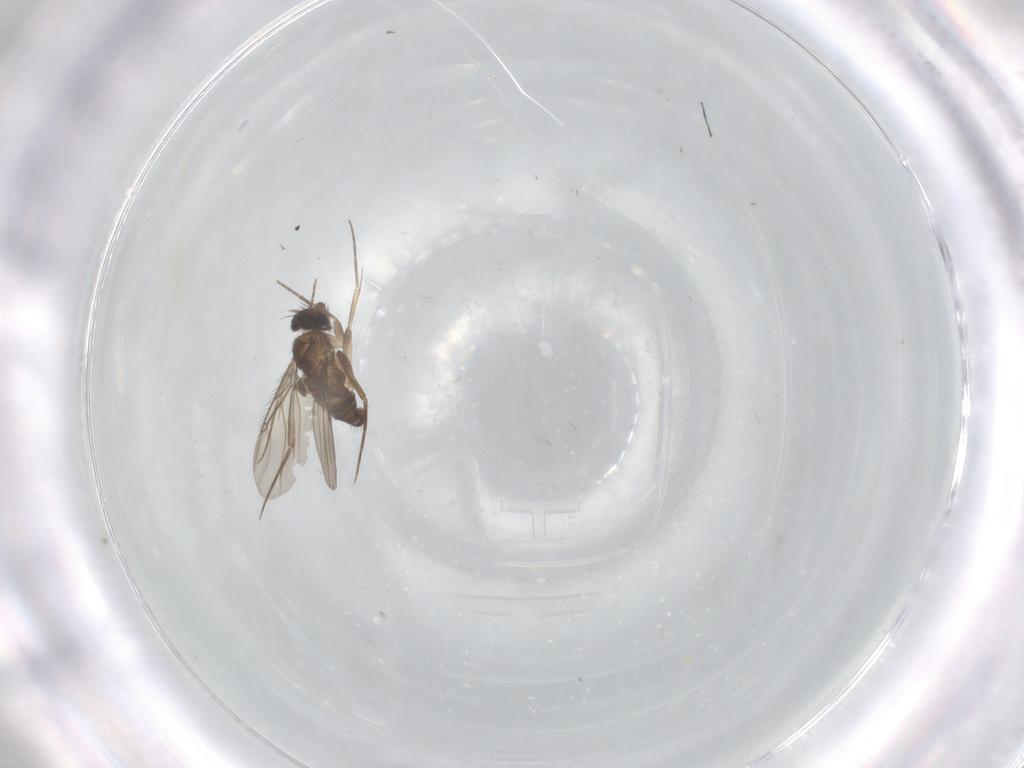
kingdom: Animalia
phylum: Arthropoda
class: Insecta
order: Diptera
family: Phoridae
